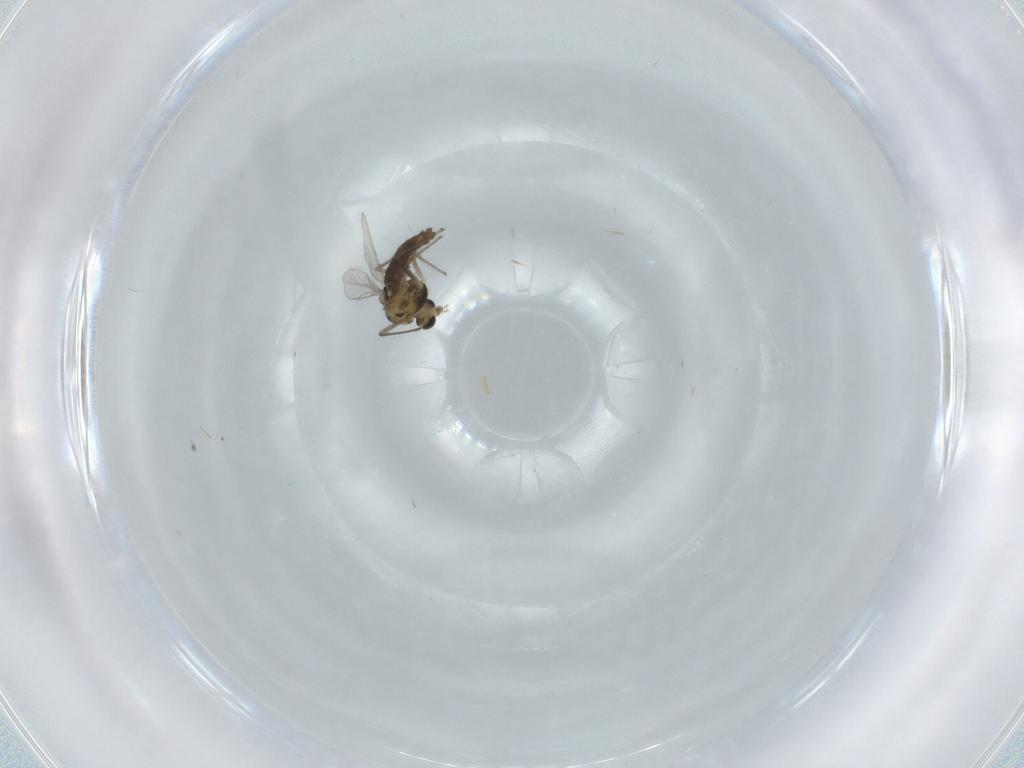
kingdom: Animalia
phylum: Arthropoda
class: Insecta
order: Diptera
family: Chironomidae
